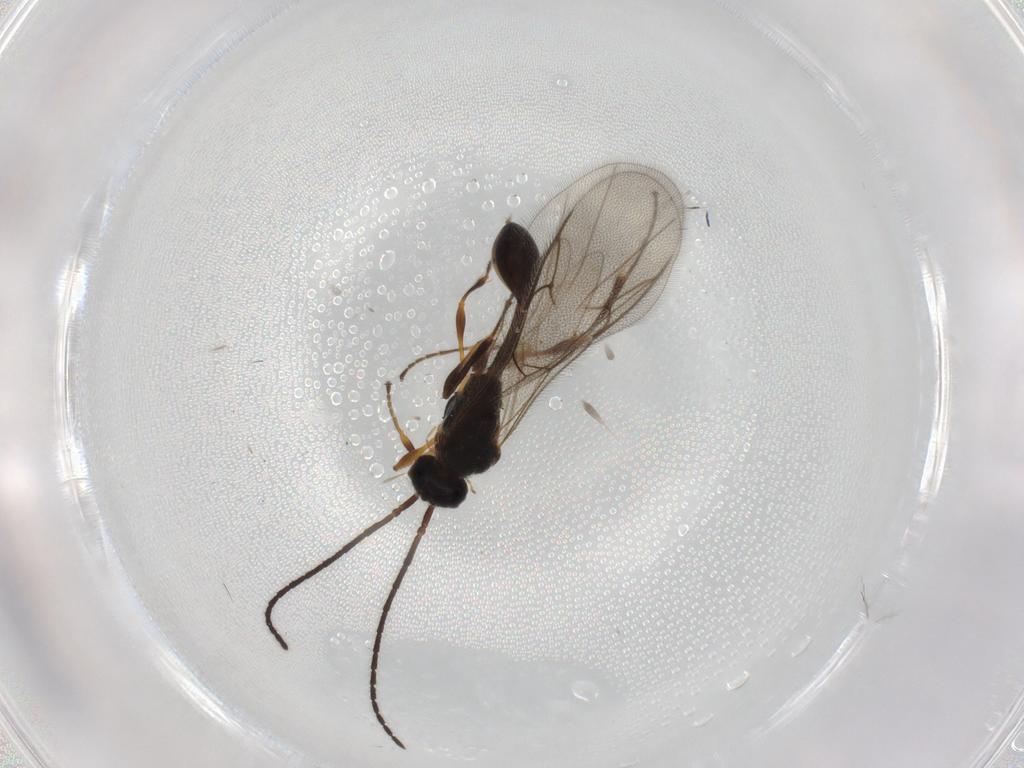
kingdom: Animalia
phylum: Arthropoda
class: Insecta
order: Hymenoptera
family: Diapriidae
